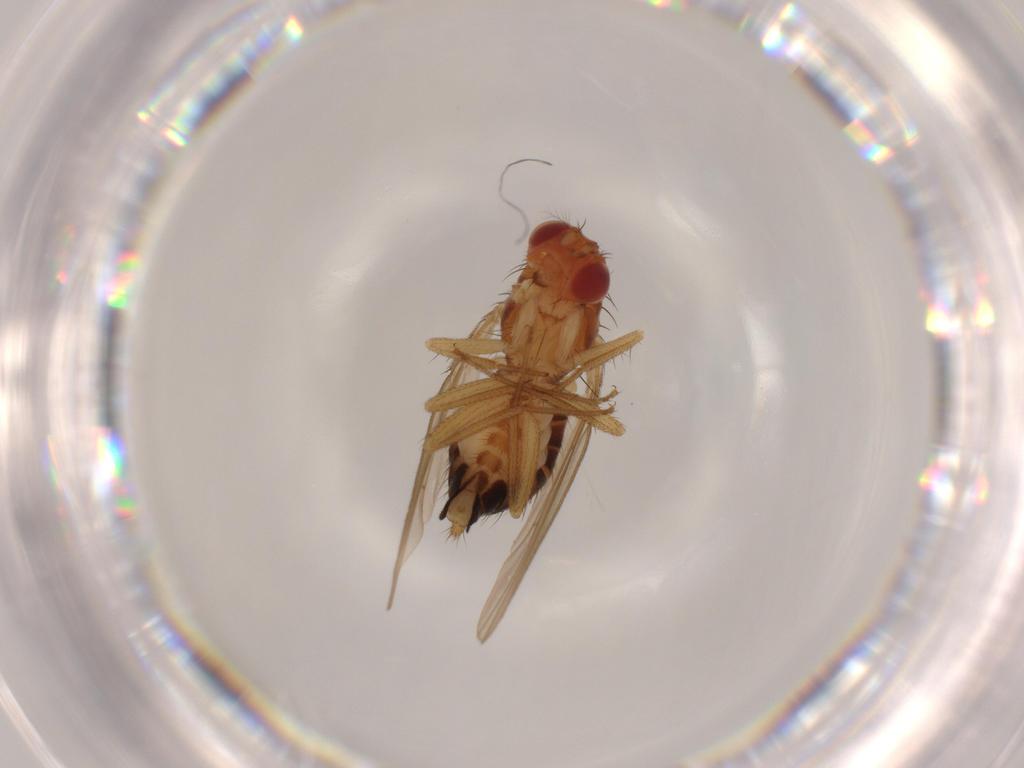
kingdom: Animalia
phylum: Arthropoda
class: Insecta
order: Diptera
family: Drosophilidae
